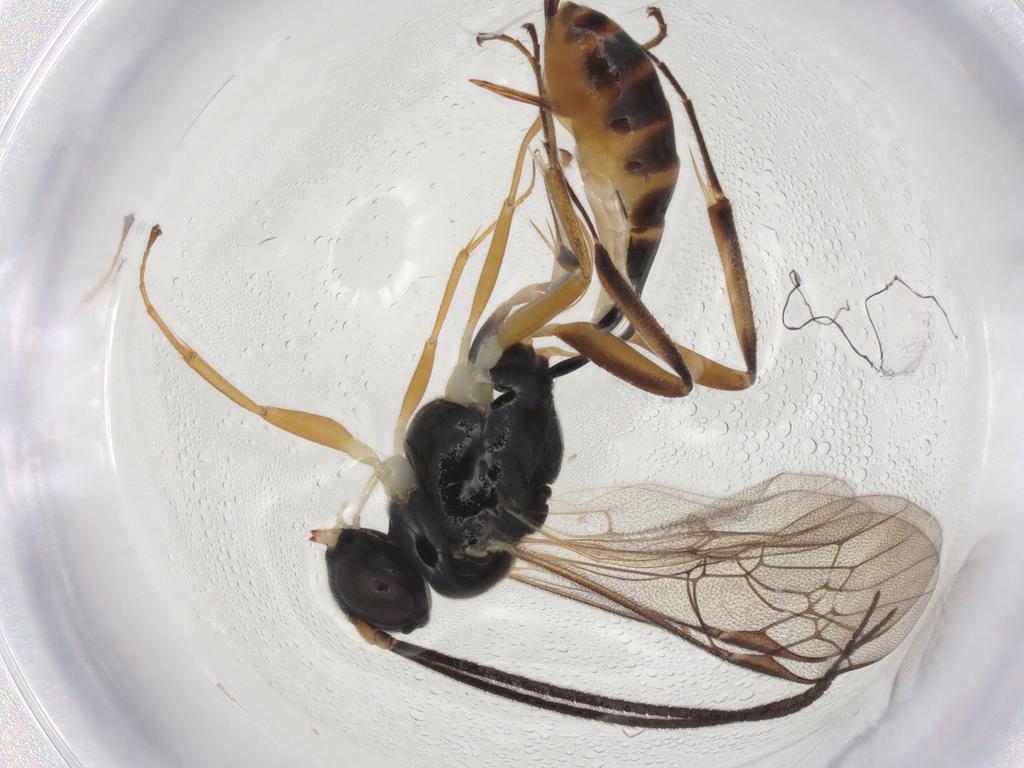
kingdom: Animalia
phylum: Arthropoda
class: Insecta
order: Hymenoptera
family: Ichneumonidae
